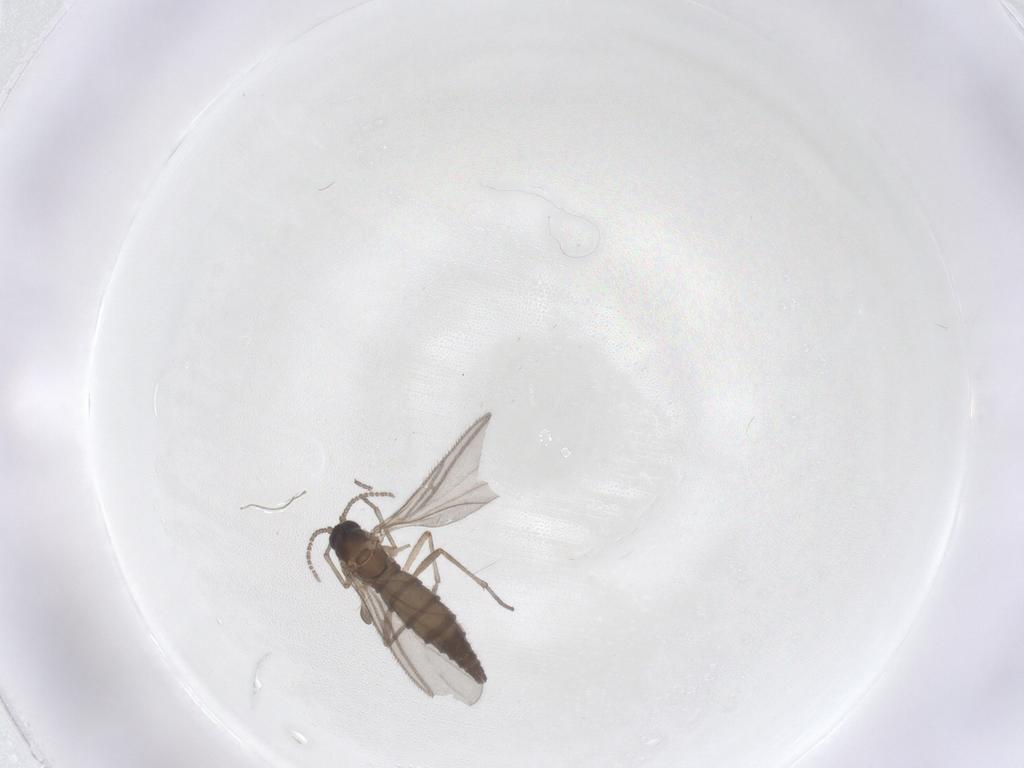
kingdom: Animalia
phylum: Arthropoda
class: Insecta
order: Diptera
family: Sciaridae
